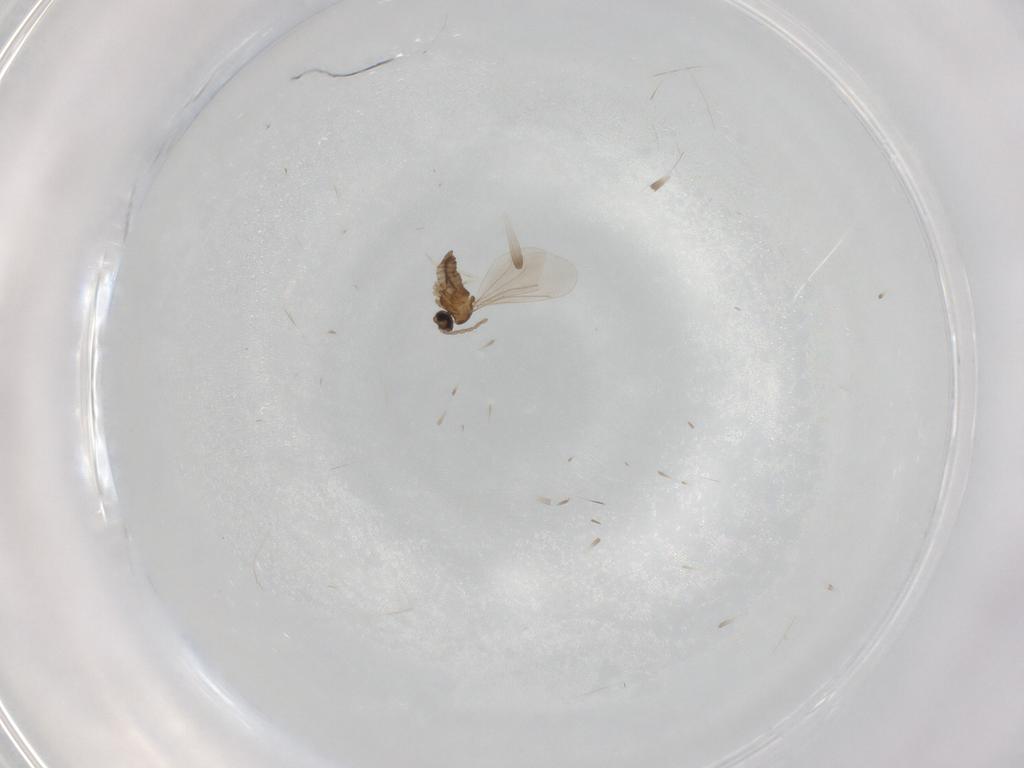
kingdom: Animalia
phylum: Arthropoda
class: Insecta
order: Diptera
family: Cecidomyiidae
